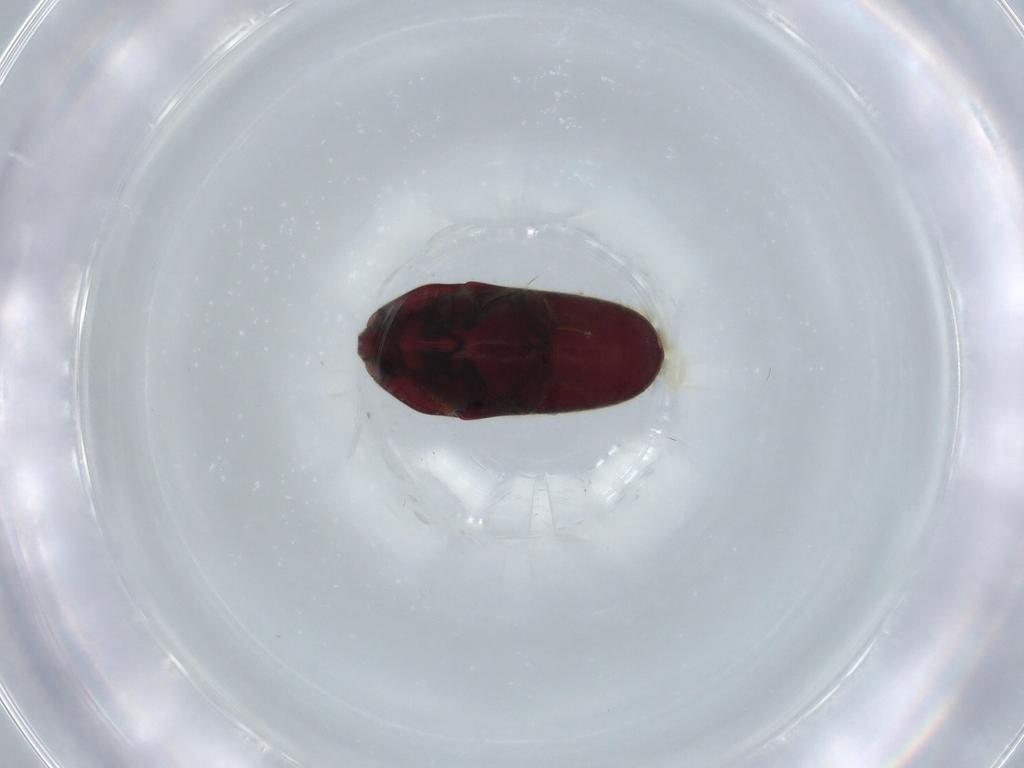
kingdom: Animalia
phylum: Arthropoda
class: Insecta
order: Coleoptera
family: Throscidae
